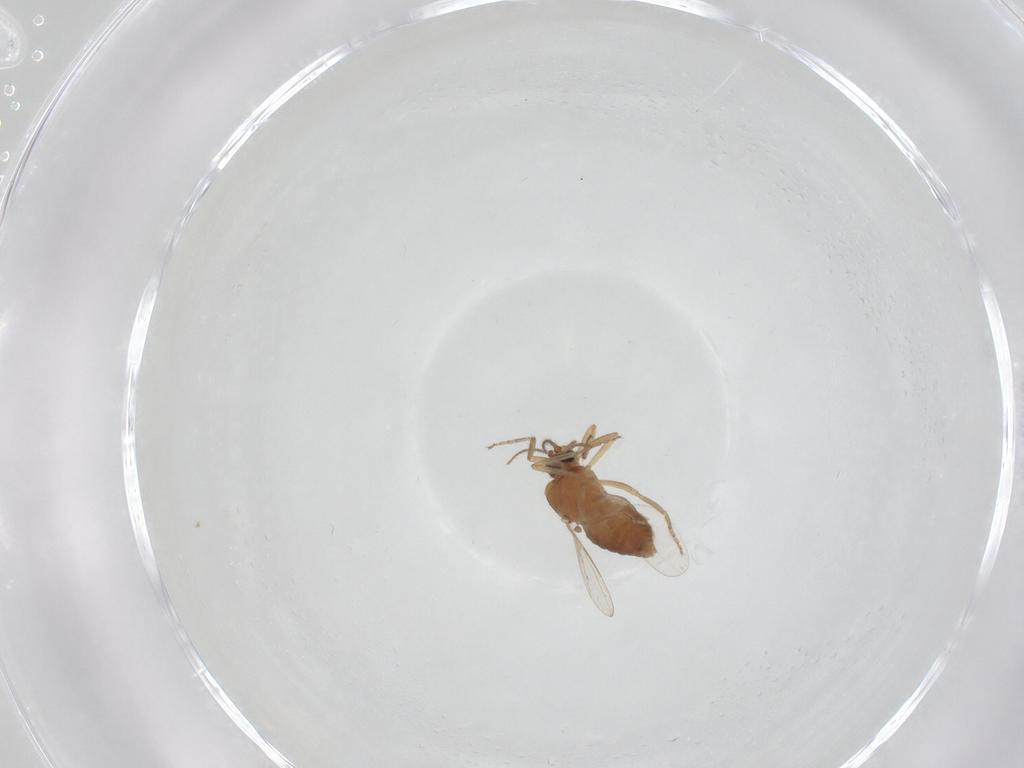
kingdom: Animalia
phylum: Arthropoda
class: Insecta
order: Diptera
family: Ceratopogonidae
